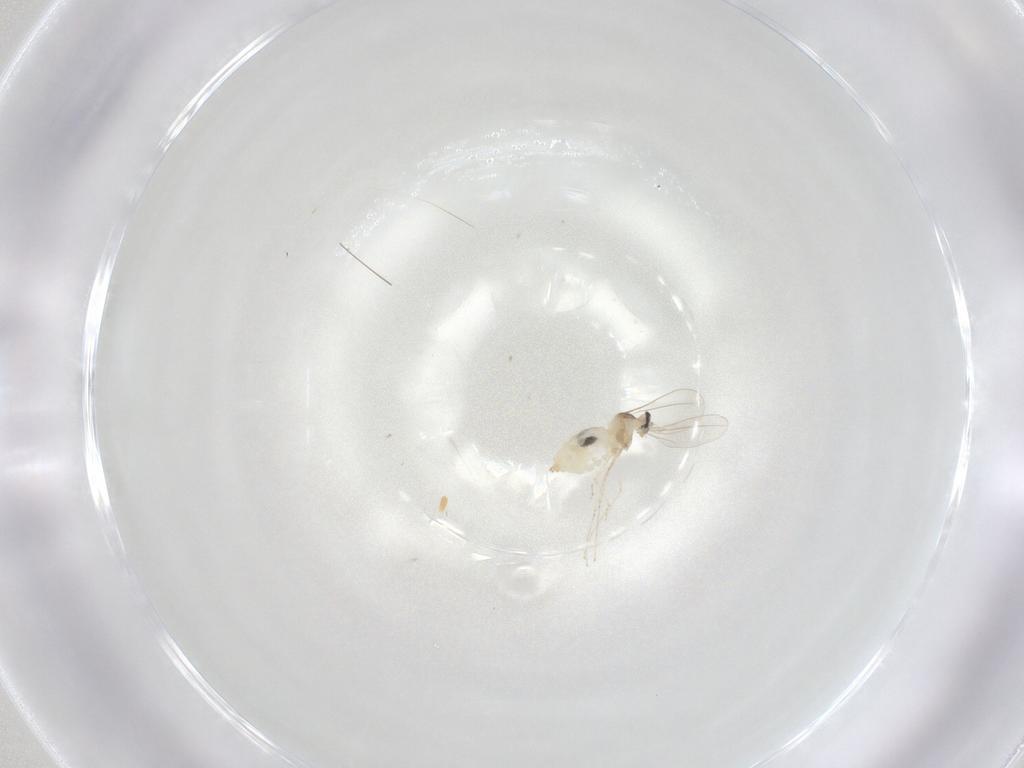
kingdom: Animalia
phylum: Arthropoda
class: Insecta
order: Diptera
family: Cecidomyiidae
